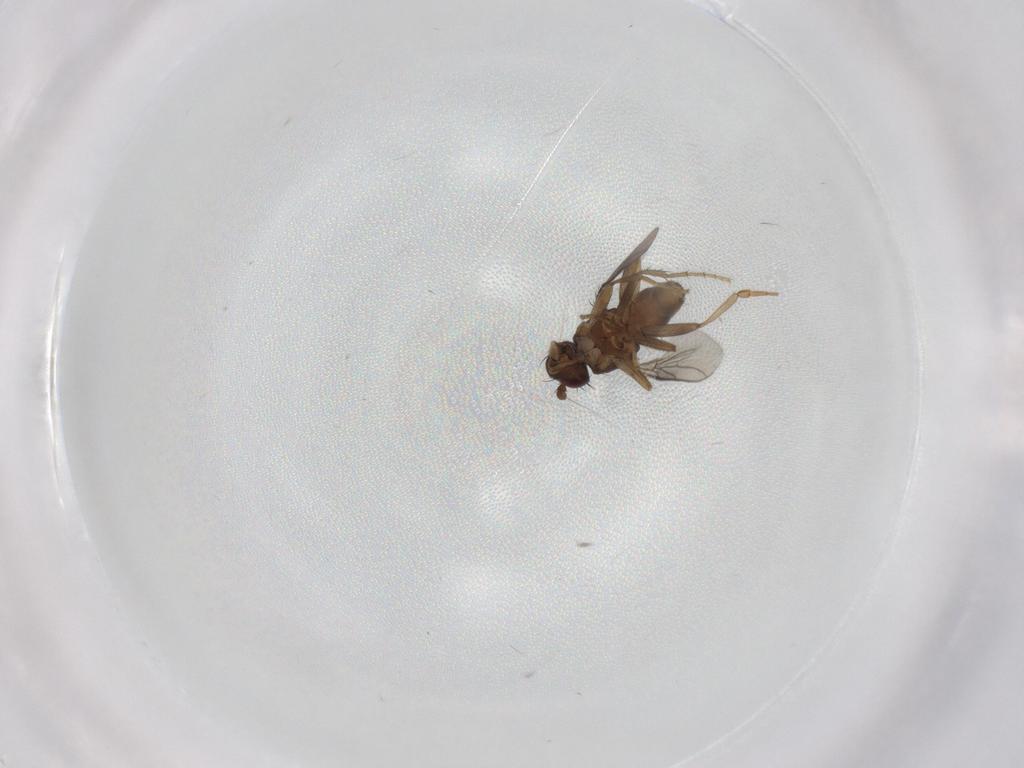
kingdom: Animalia
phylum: Arthropoda
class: Insecta
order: Diptera
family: Sphaeroceridae
